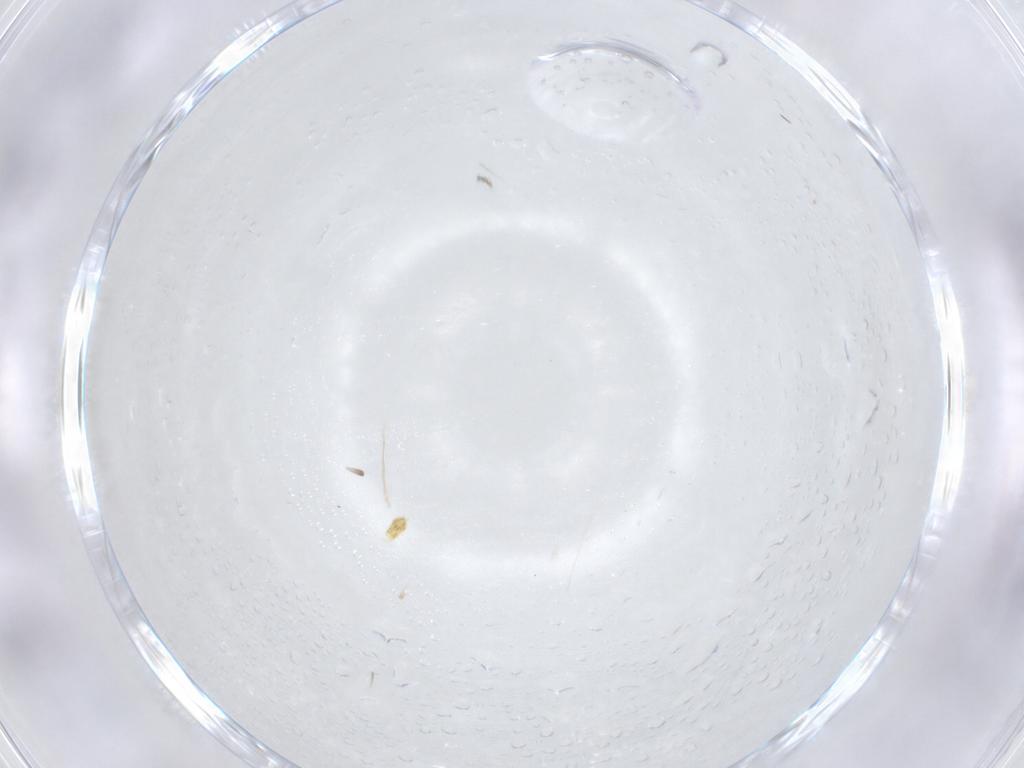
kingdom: Animalia
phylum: Arthropoda
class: Insecta
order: Diptera
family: Ceratopogonidae
